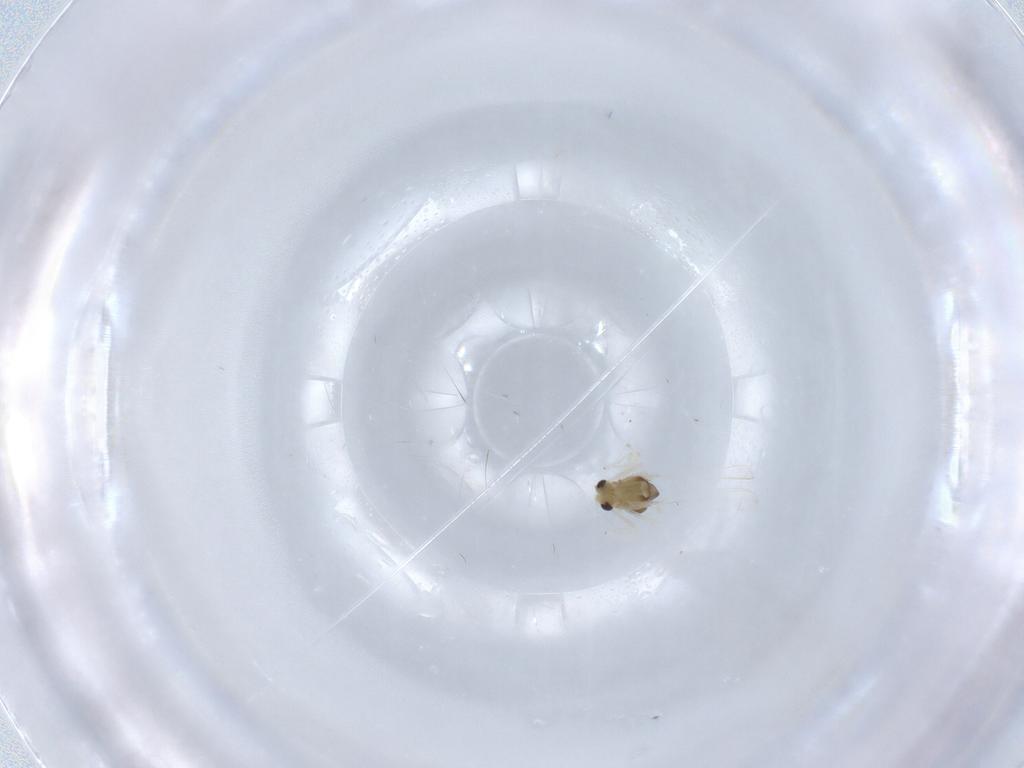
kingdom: Animalia
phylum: Arthropoda
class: Insecta
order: Diptera
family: Chironomidae
